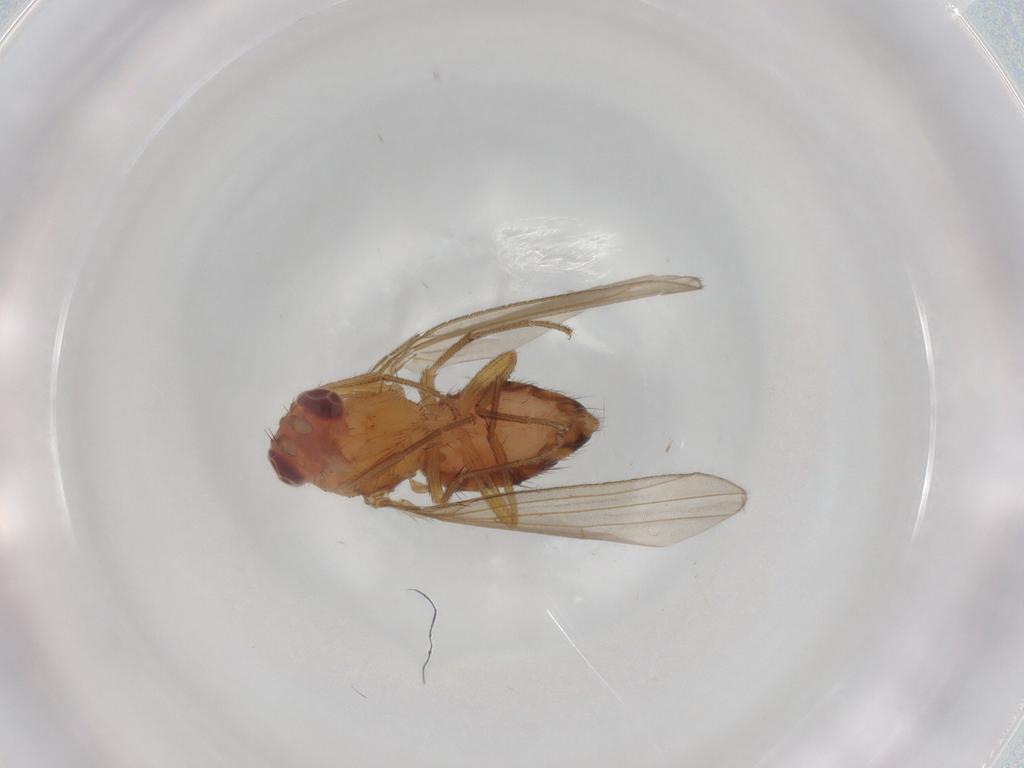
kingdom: Animalia
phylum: Arthropoda
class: Insecta
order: Diptera
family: Drosophilidae
